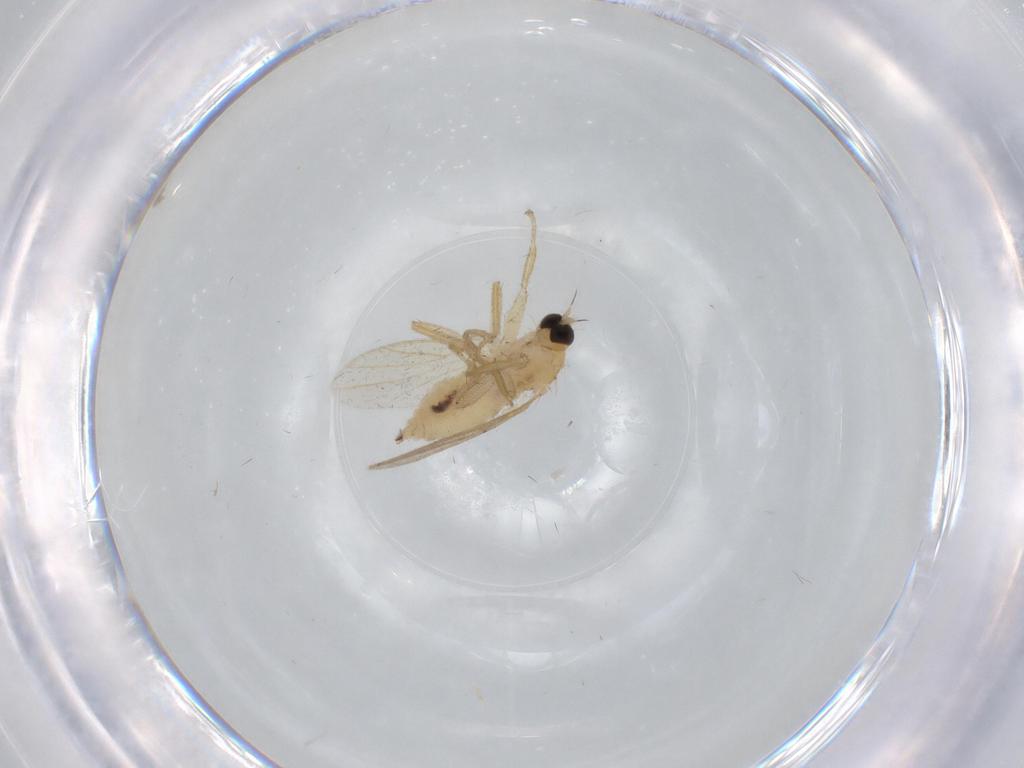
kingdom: Animalia
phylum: Arthropoda
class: Insecta
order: Diptera
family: Hybotidae
